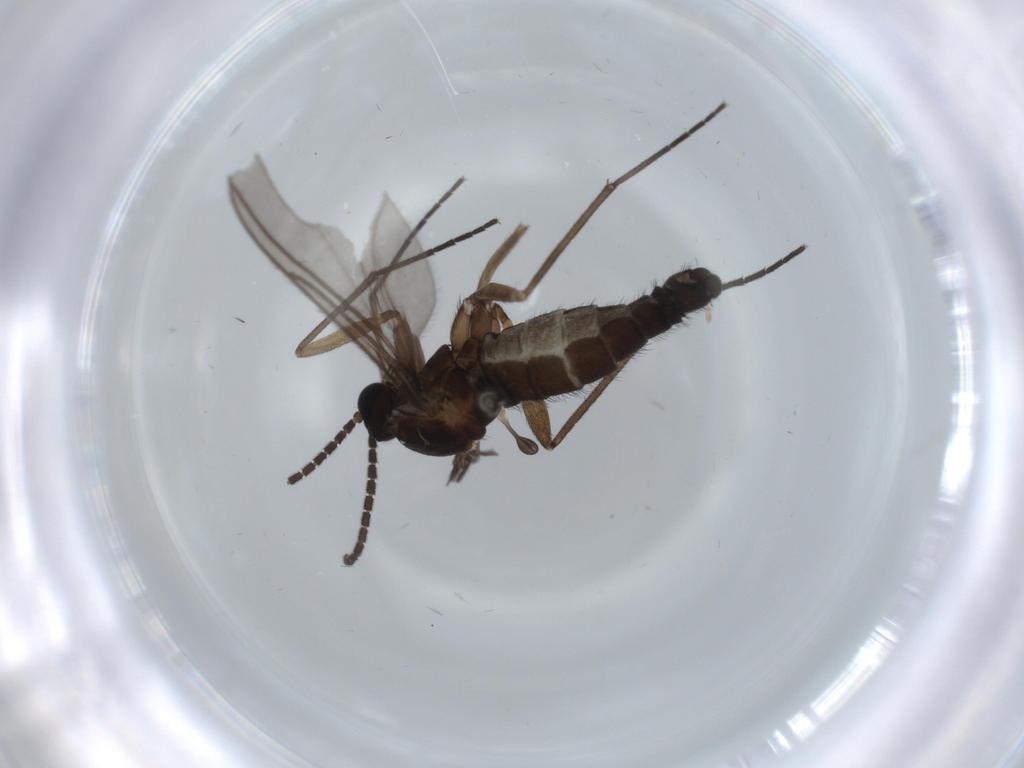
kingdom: Animalia
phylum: Arthropoda
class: Insecta
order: Diptera
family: Sciaridae
